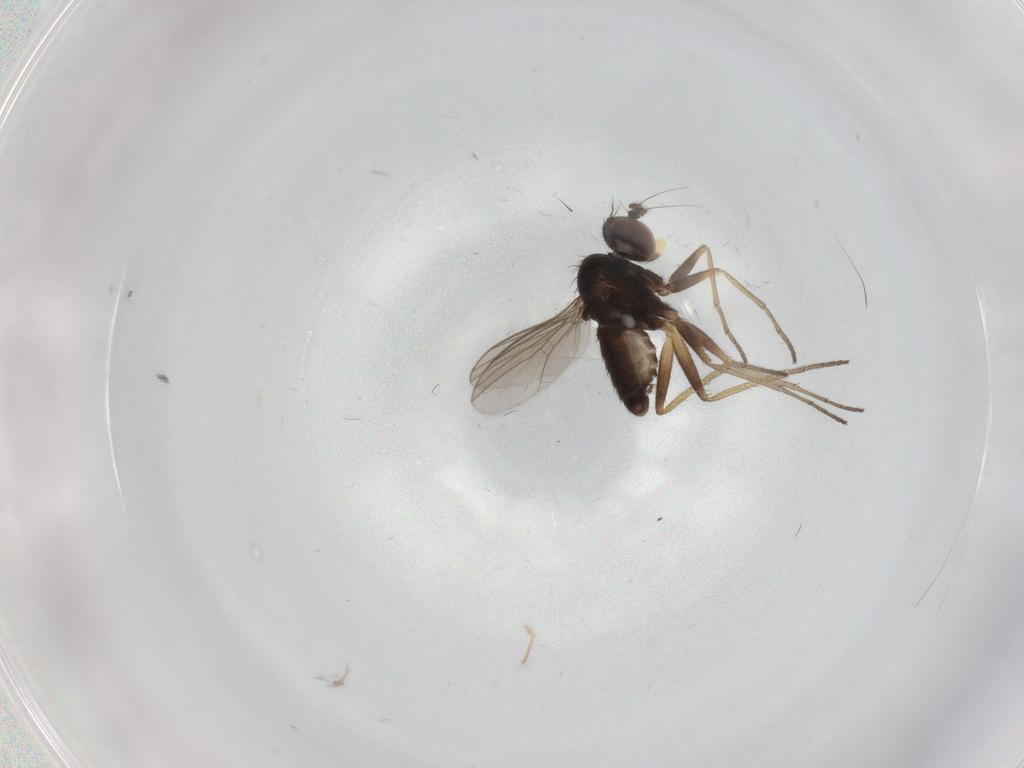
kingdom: Animalia
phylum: Arthropoda
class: Insecta
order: Diptera
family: Dolichopodidae
